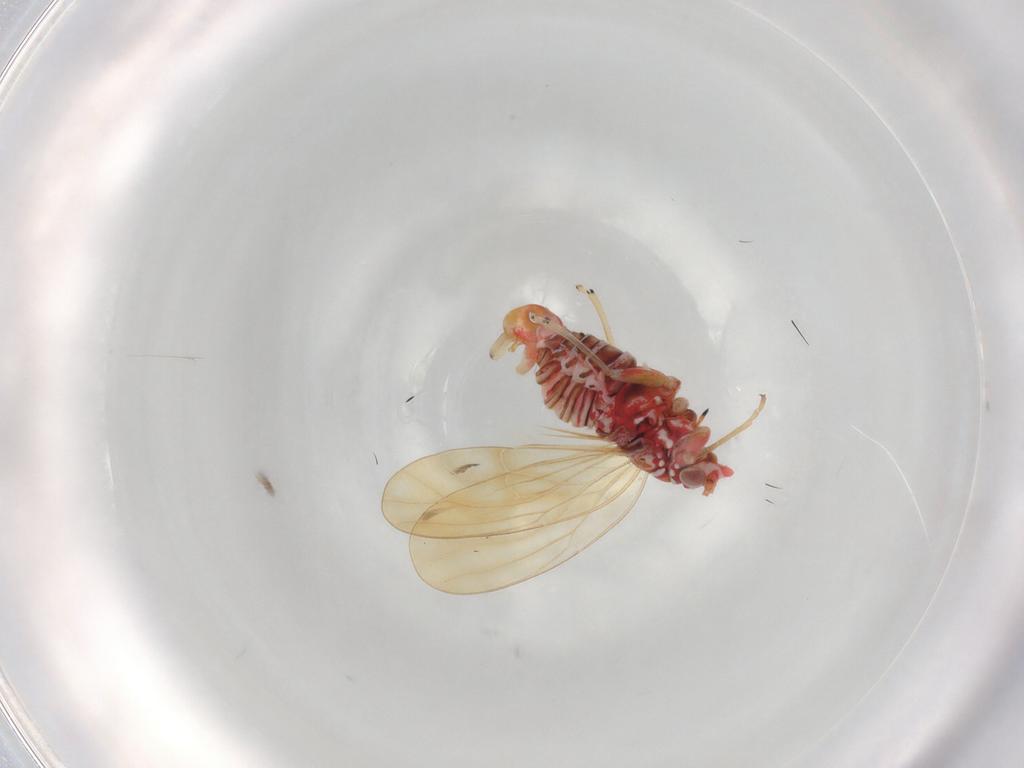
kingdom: Animalia
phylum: Arthropoda
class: Insecta
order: Hemiptera
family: Psyllidae
